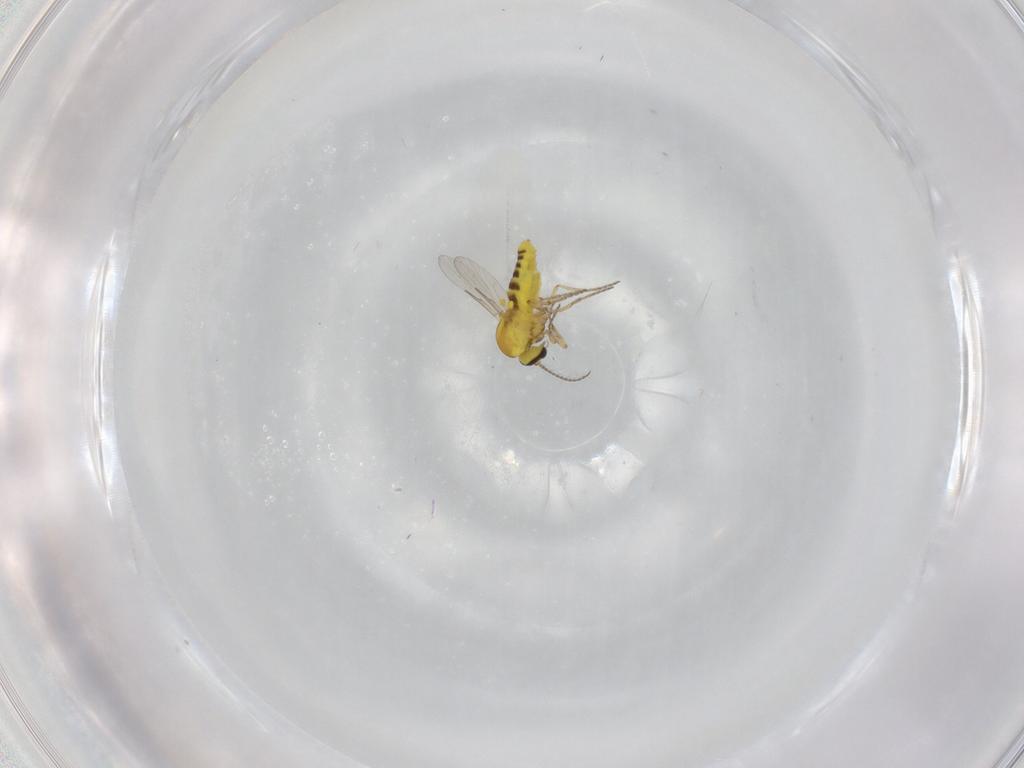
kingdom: Animalia
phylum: Arthropoda
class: Insecta
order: Diptera
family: Ceratopogonidae
